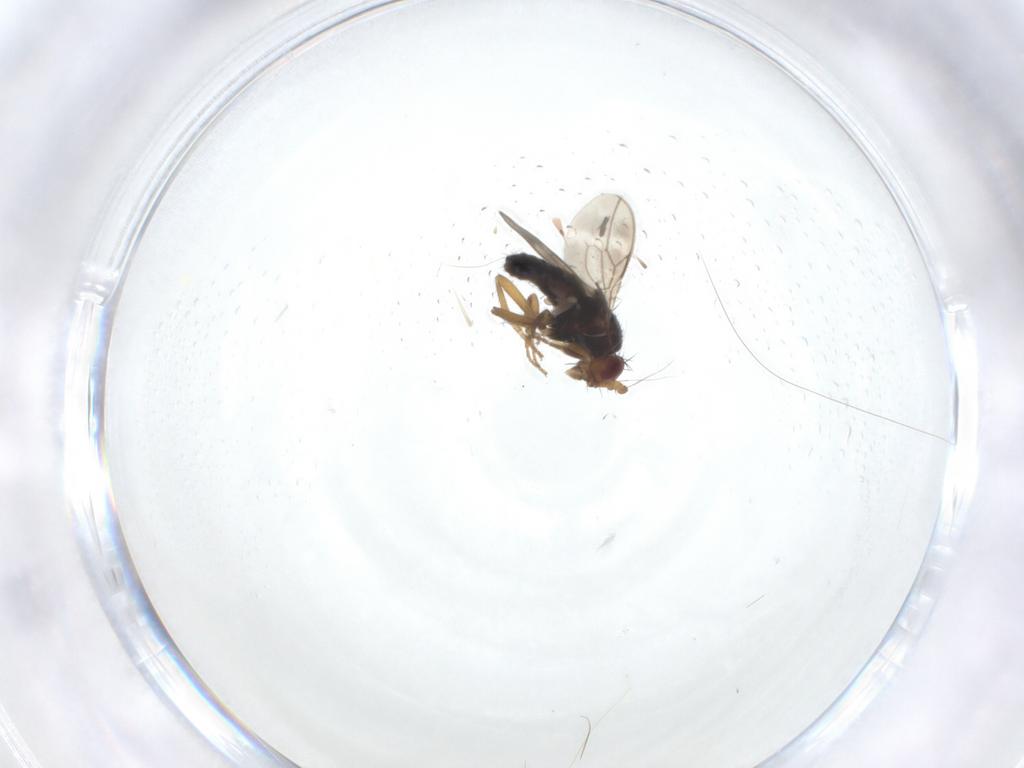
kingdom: Animalia
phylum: Arthropoda
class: Insecta
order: Diptera
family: Sphaeroceridae
